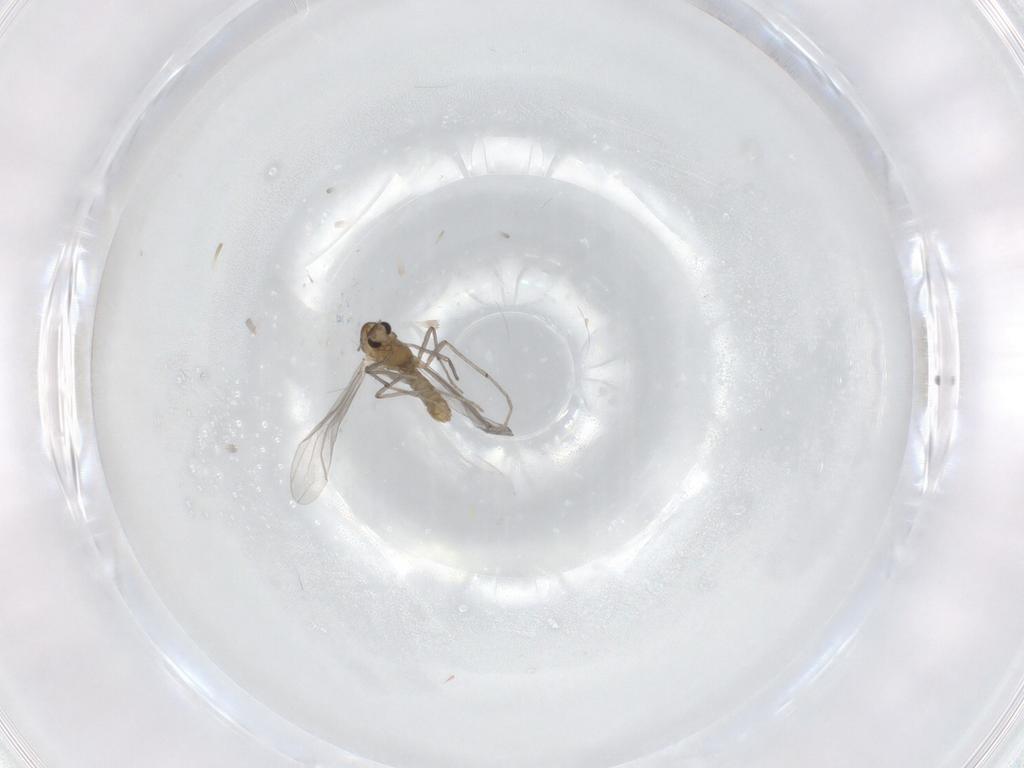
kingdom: Animalia
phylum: Arthropoda
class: Insecta
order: Diptera
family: Chironomidae
